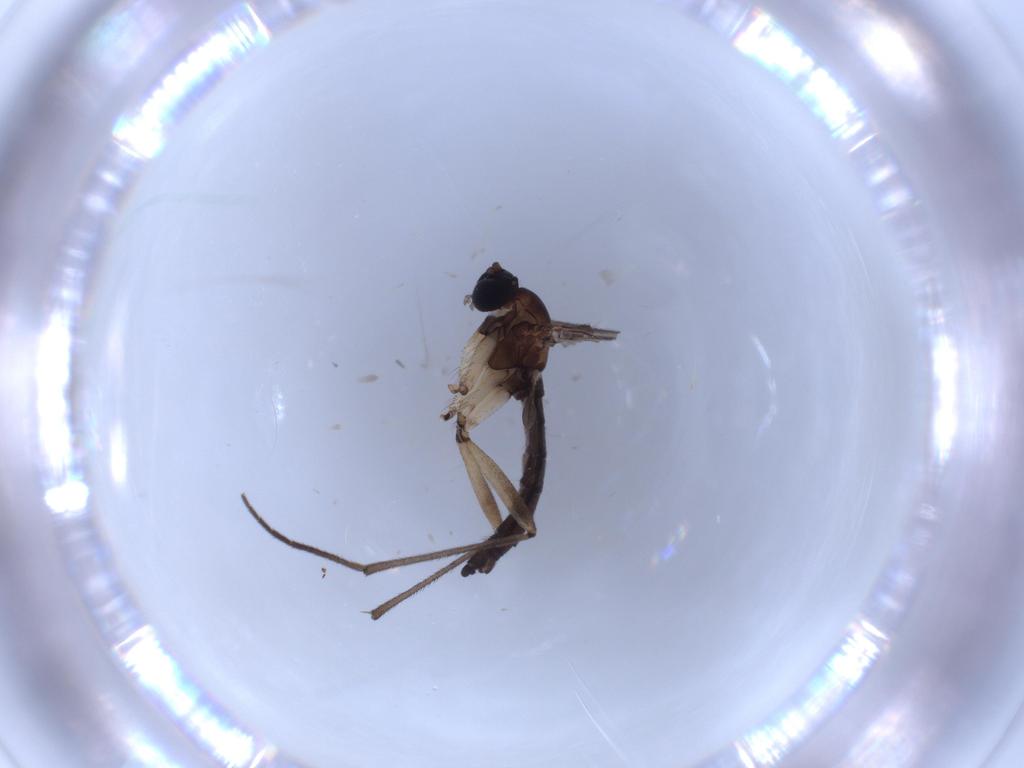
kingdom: Animalia
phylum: Arthropoda
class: Insecta
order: Diptera
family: Sciaridae
